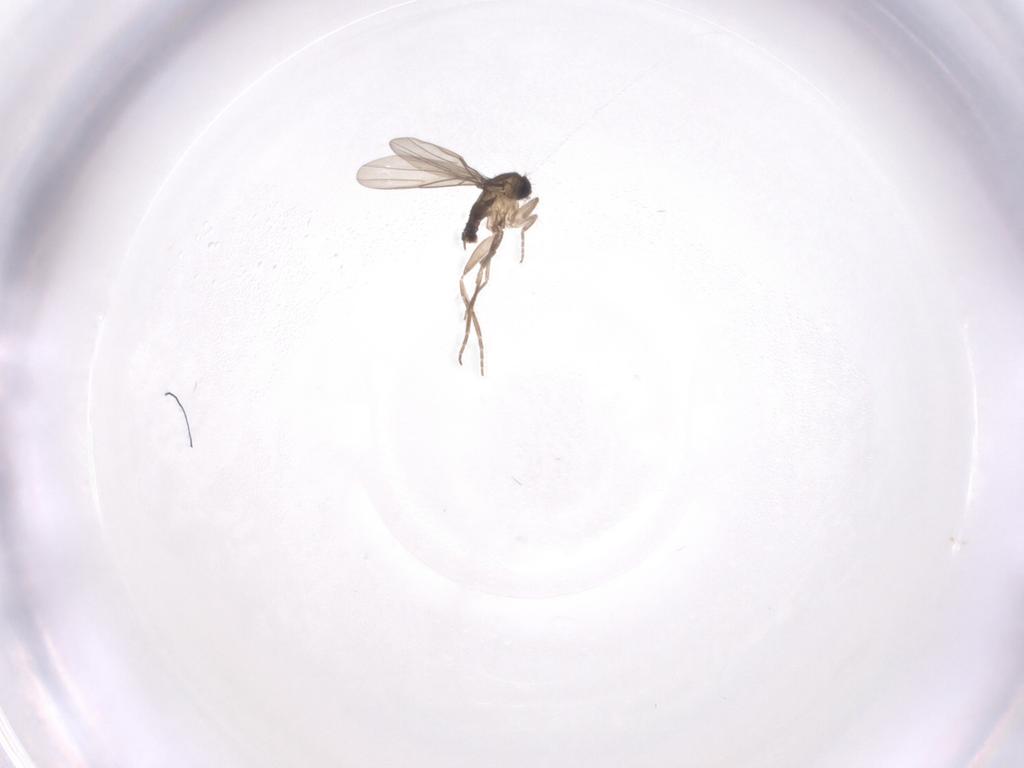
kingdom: Animalia
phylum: Arthropoda
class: Insecta
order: Diptera
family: Phoridae
